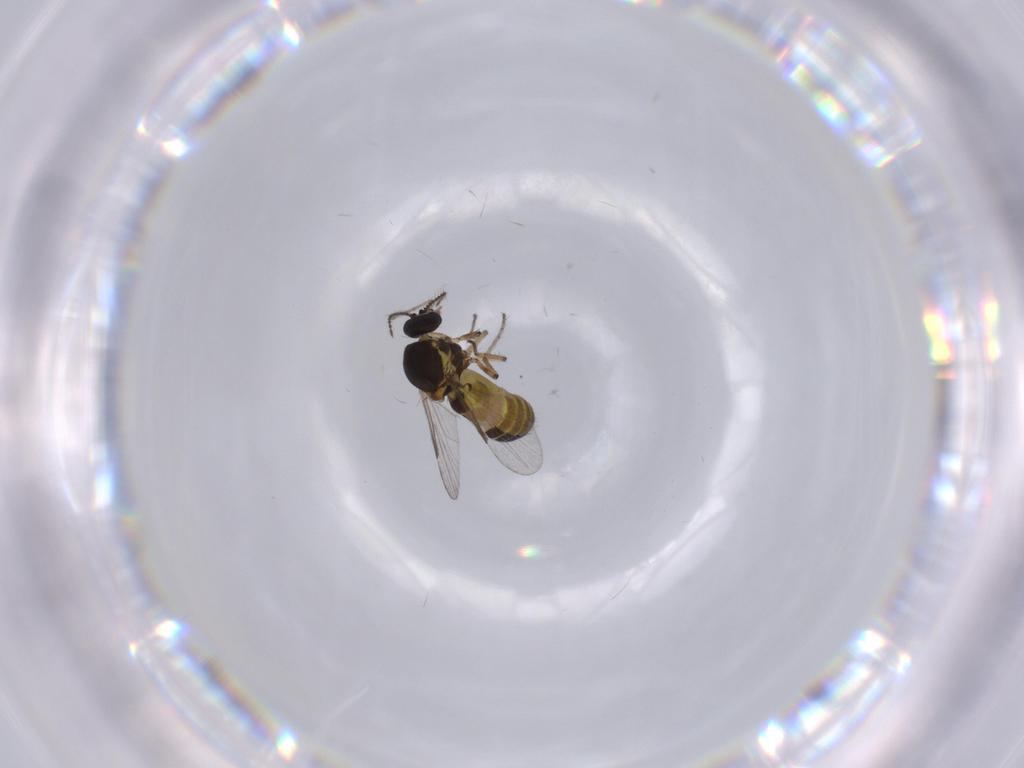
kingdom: Animalia
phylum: Arthropoda
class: Insecta
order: Diptera
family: Ceratopogonidae
